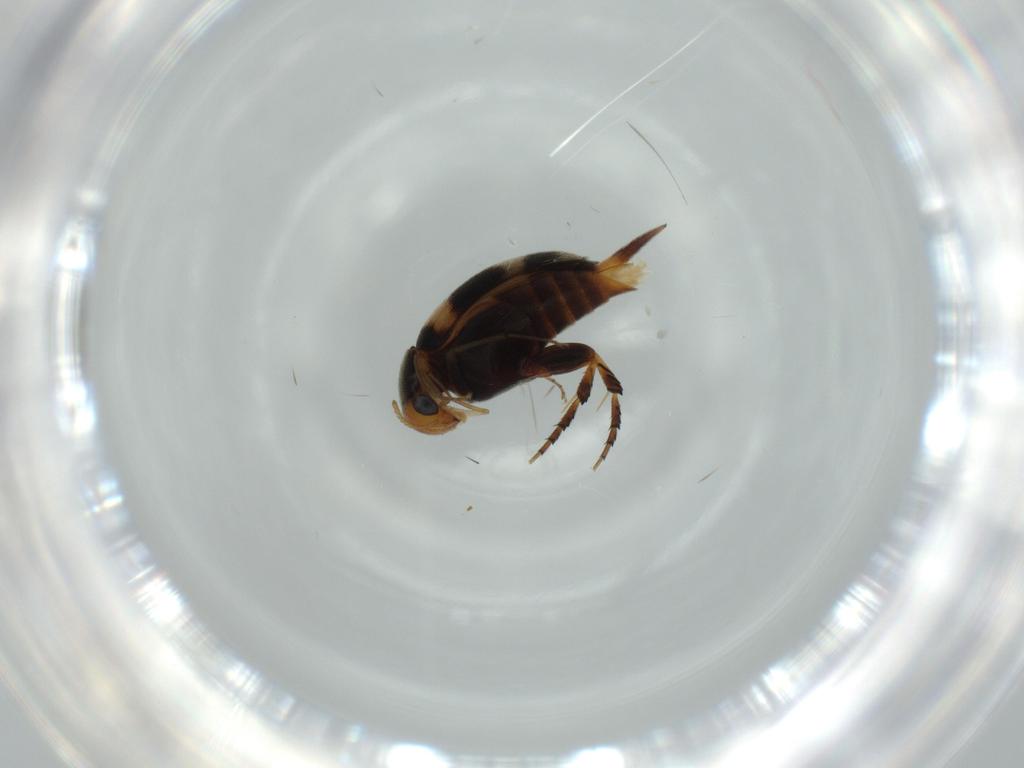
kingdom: Animalia
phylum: Arthropoda
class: Insecta
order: Coleoptera
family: Mordellidae
